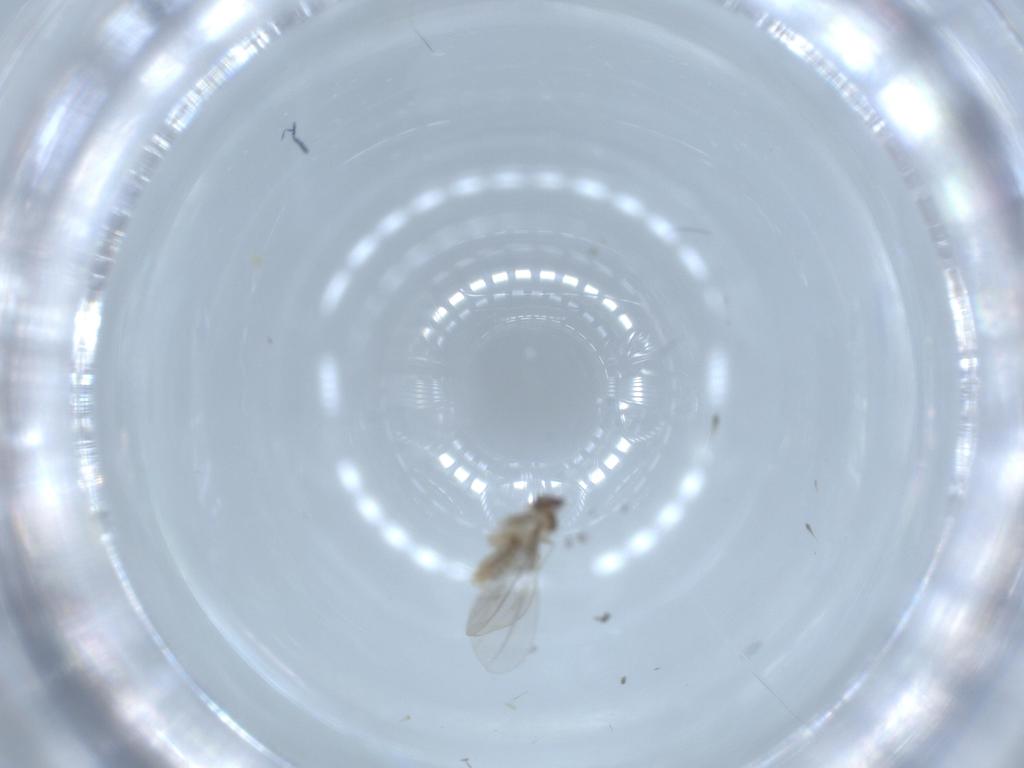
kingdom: Animalia
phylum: Arthropoda
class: Insecta
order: Diptera
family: Cecidomyiidae
